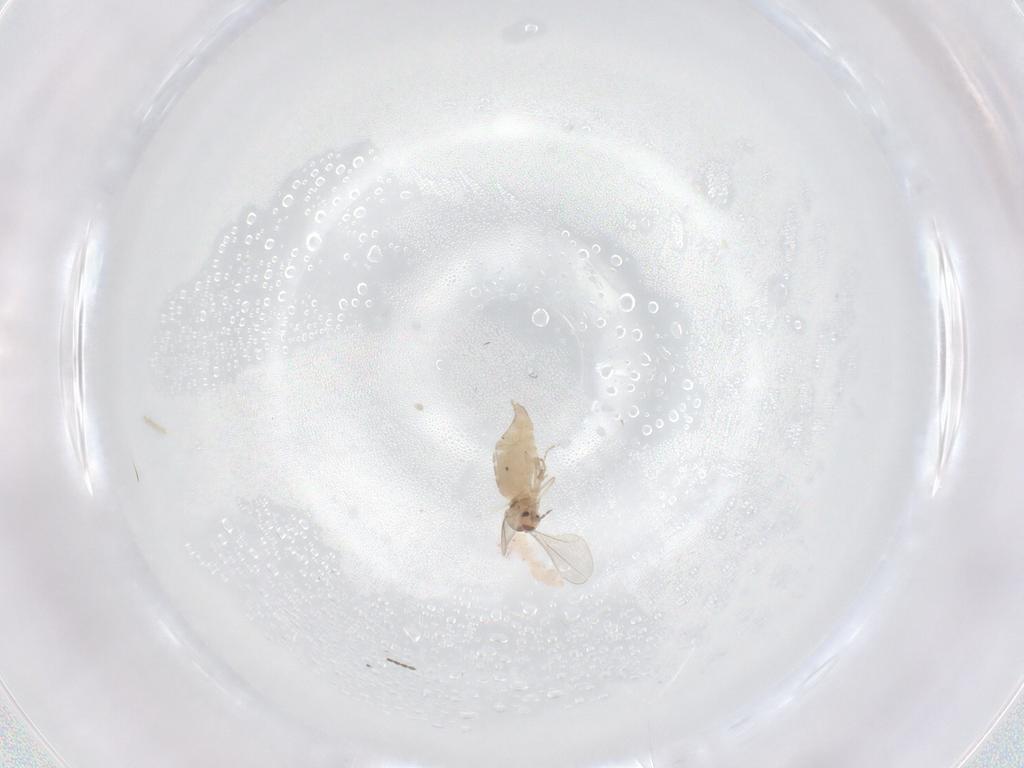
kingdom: Animalia
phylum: Arthropoda
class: Insecta
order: Diptera
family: Cecidomyiidae
